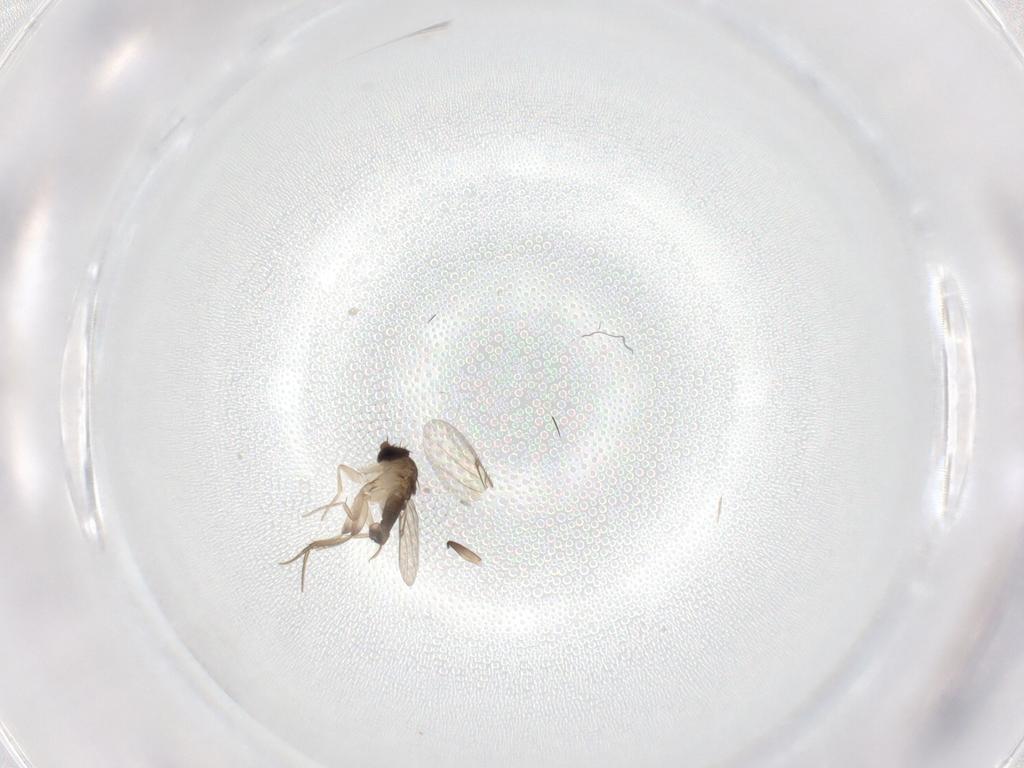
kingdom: Animalia
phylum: Arthropoda
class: Insecta
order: Diptera
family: Phoridae
